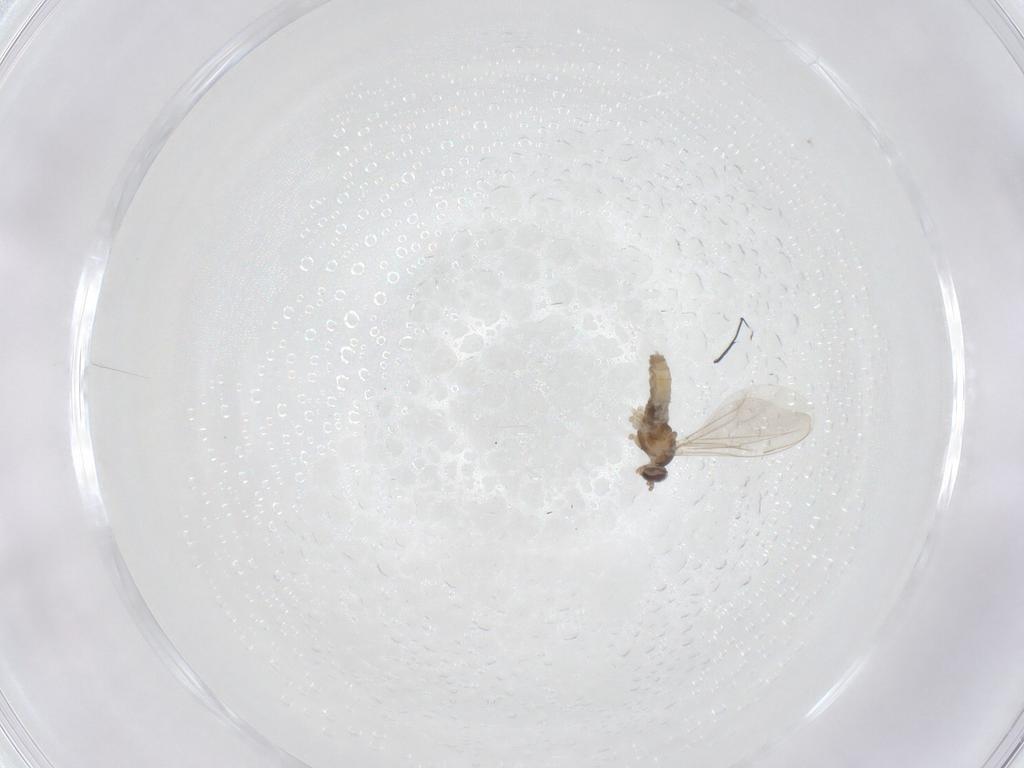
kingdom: Animalia
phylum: Arthropoda
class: Insecta
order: Diptera
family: Cecidomyiidae
